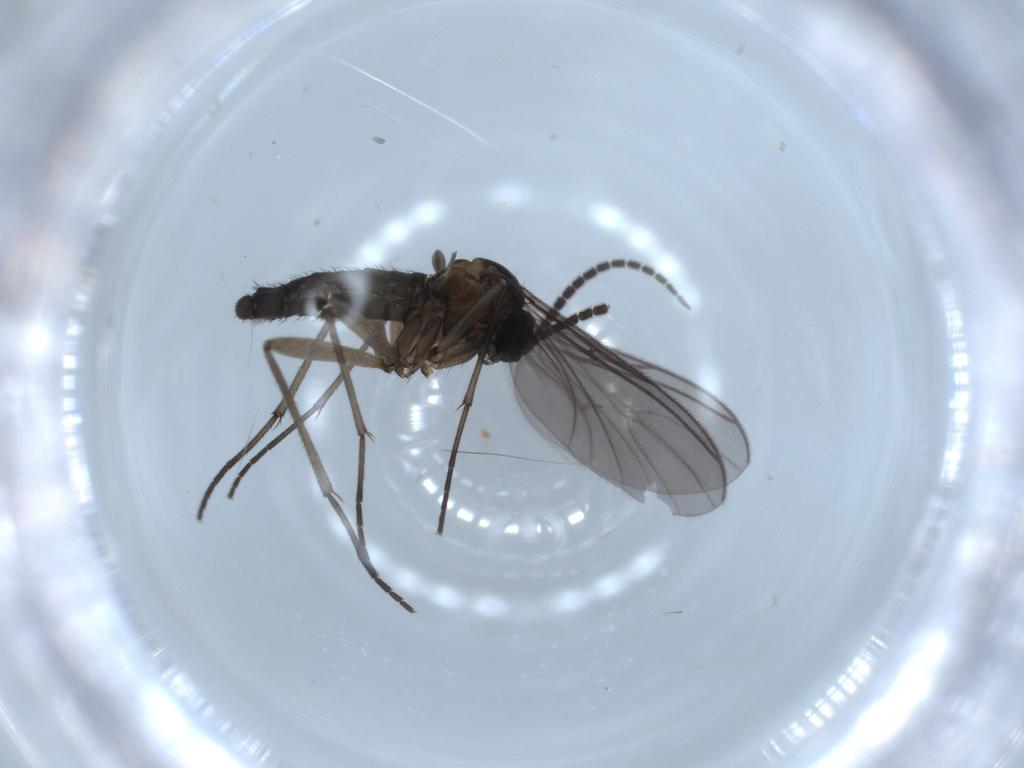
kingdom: Animalia
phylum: Arthropoda
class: Insecta
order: Diptera
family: Sciaridae
